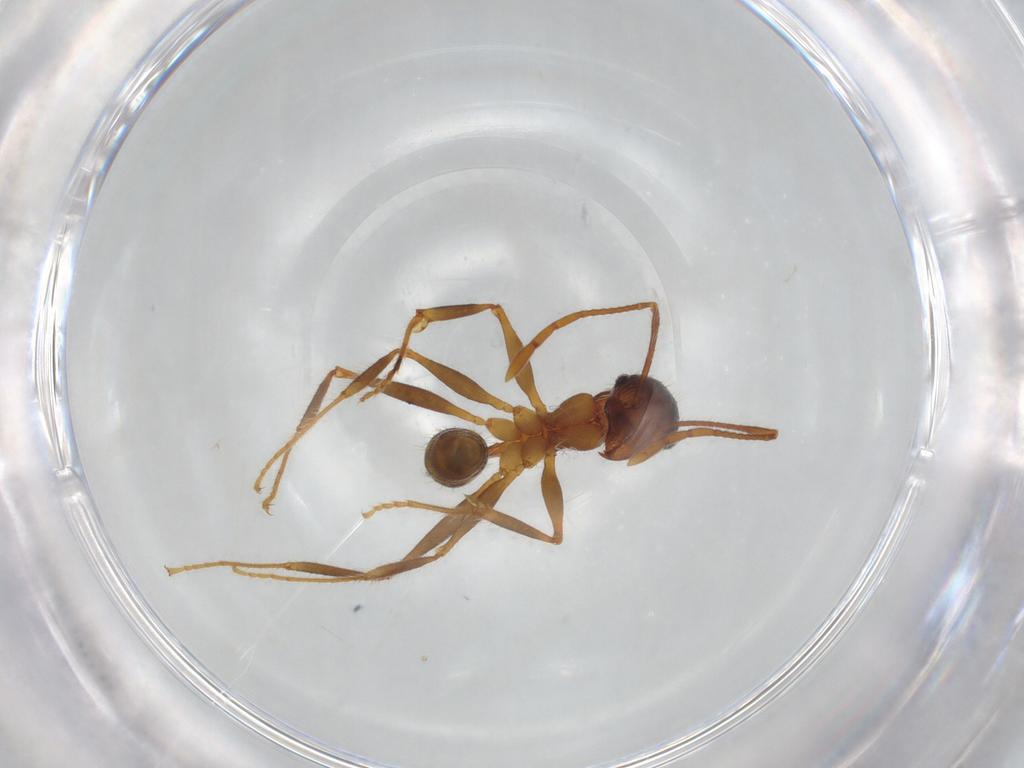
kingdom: Animalia
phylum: Arthropoda
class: Insecta
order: Hymenoptera
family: Formicidae
